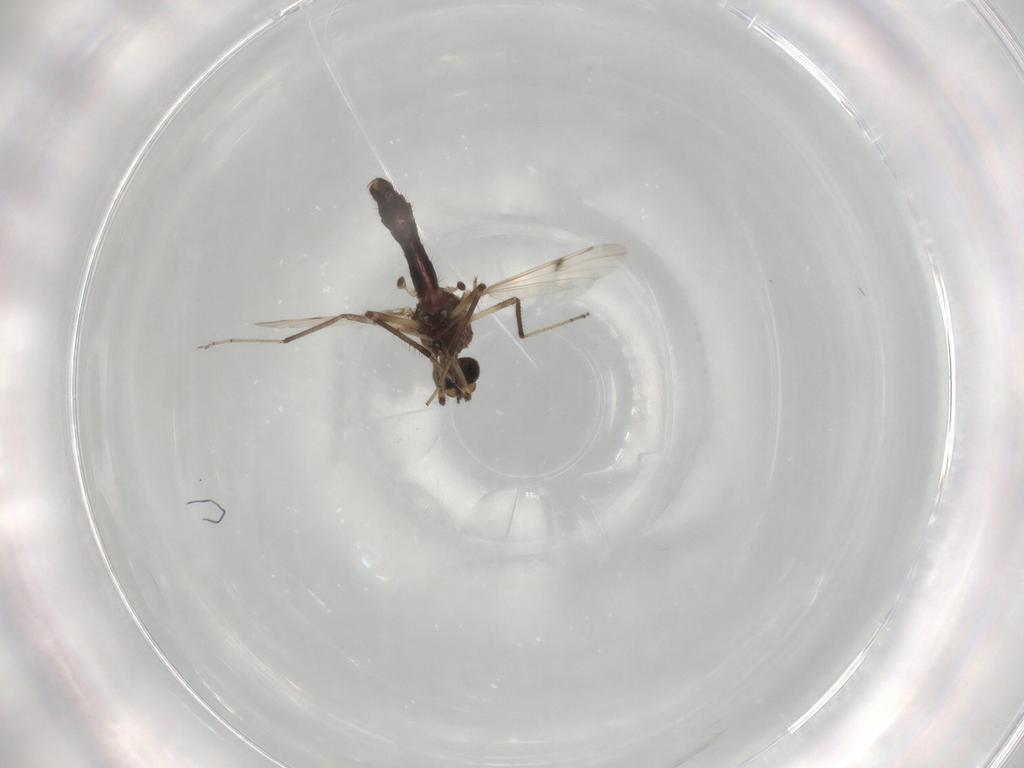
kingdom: Animalia
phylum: Arthropoda
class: Insecta
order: Diptera
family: Ceratopogonidae
